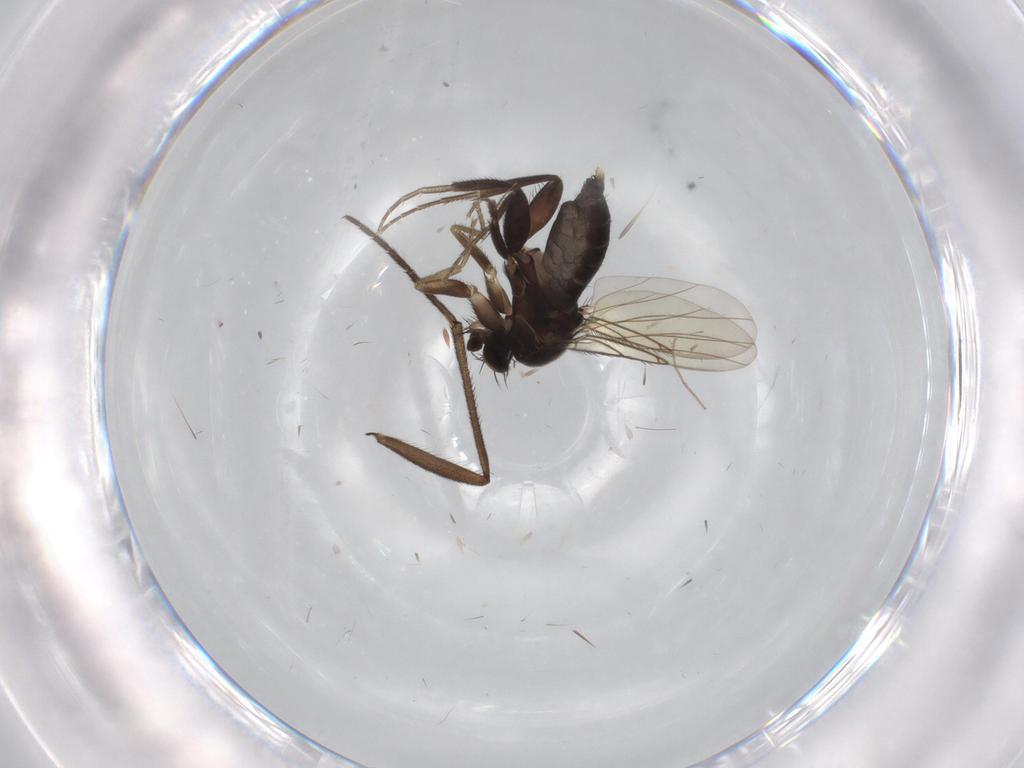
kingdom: Animalia
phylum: Arthropoda
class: Insecta
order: Diptera
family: Phoridae
